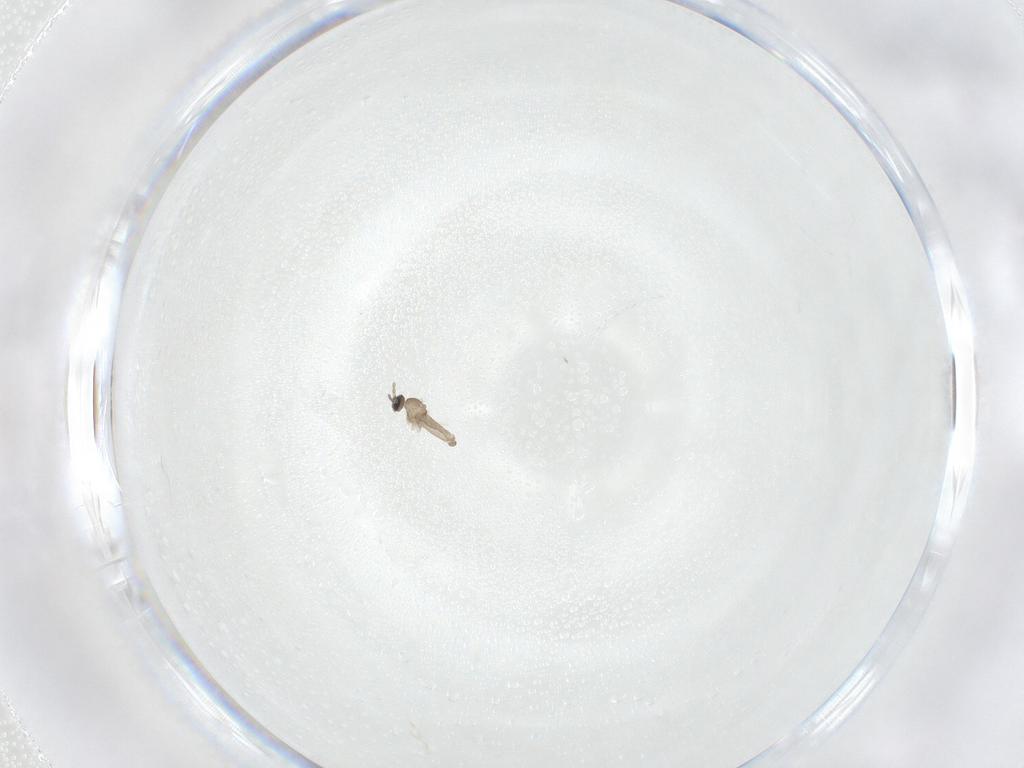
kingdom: Animalia
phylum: Arthropoda
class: Insecta
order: Diptera
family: Cecidomyiidae
